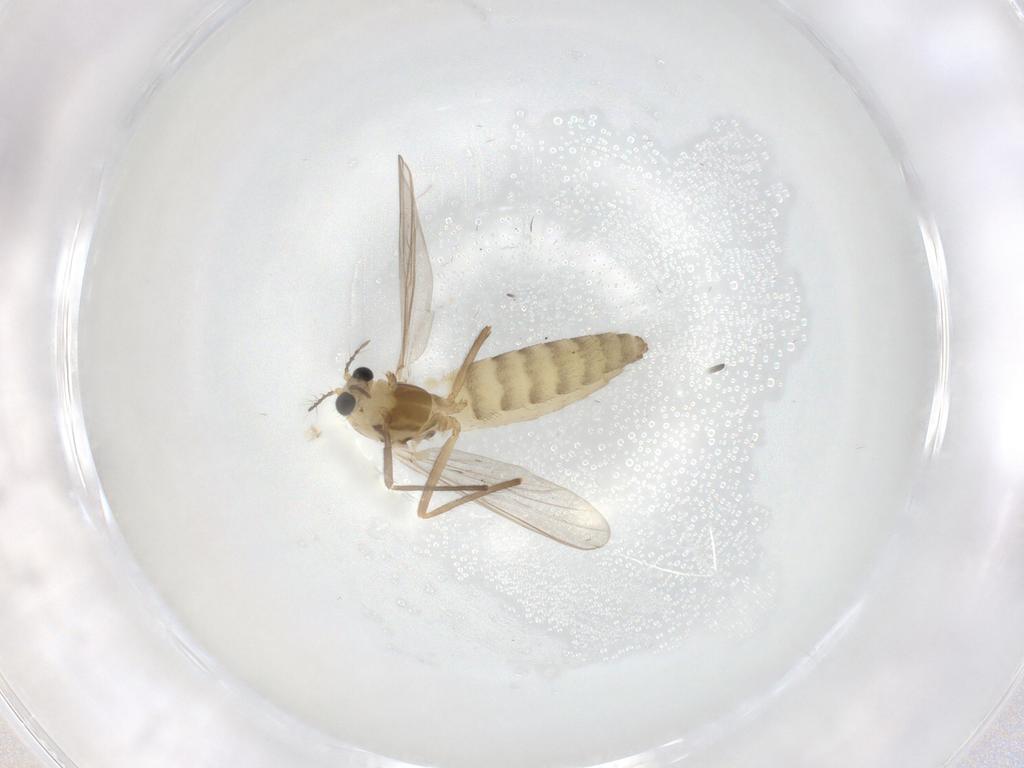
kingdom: Animalia
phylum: Arthropoda
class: Insecta
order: Diptera
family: Chironomidae
